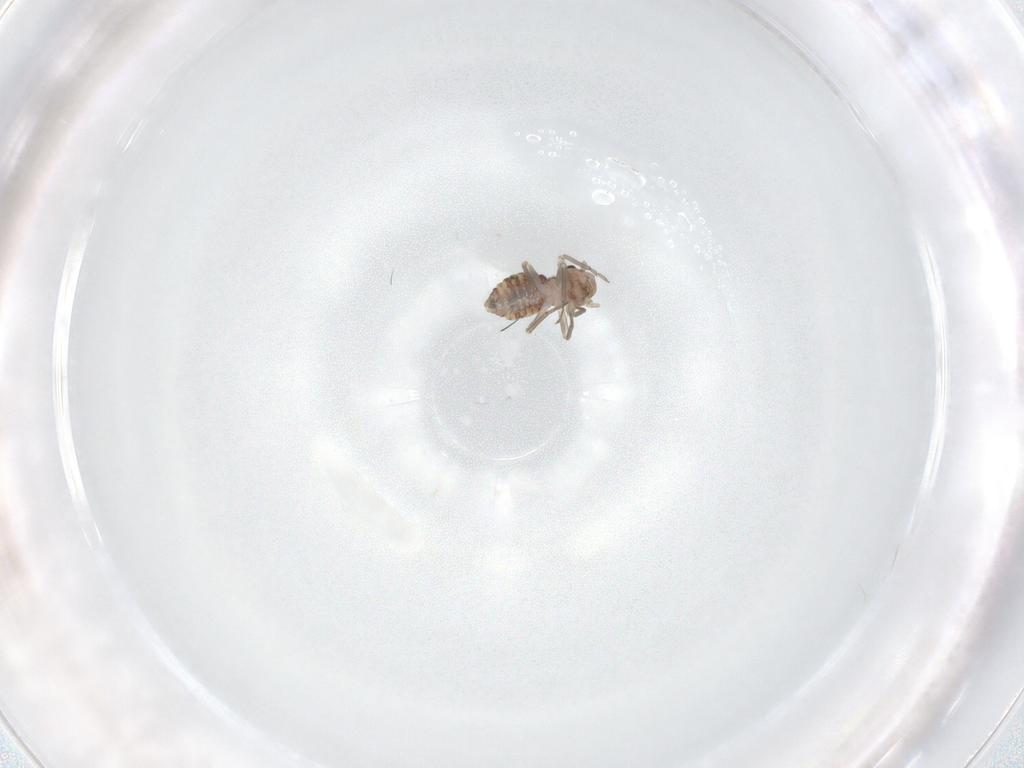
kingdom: Animalia
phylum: Arthropoda
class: Insecta
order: Psocodea
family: Psocidae
